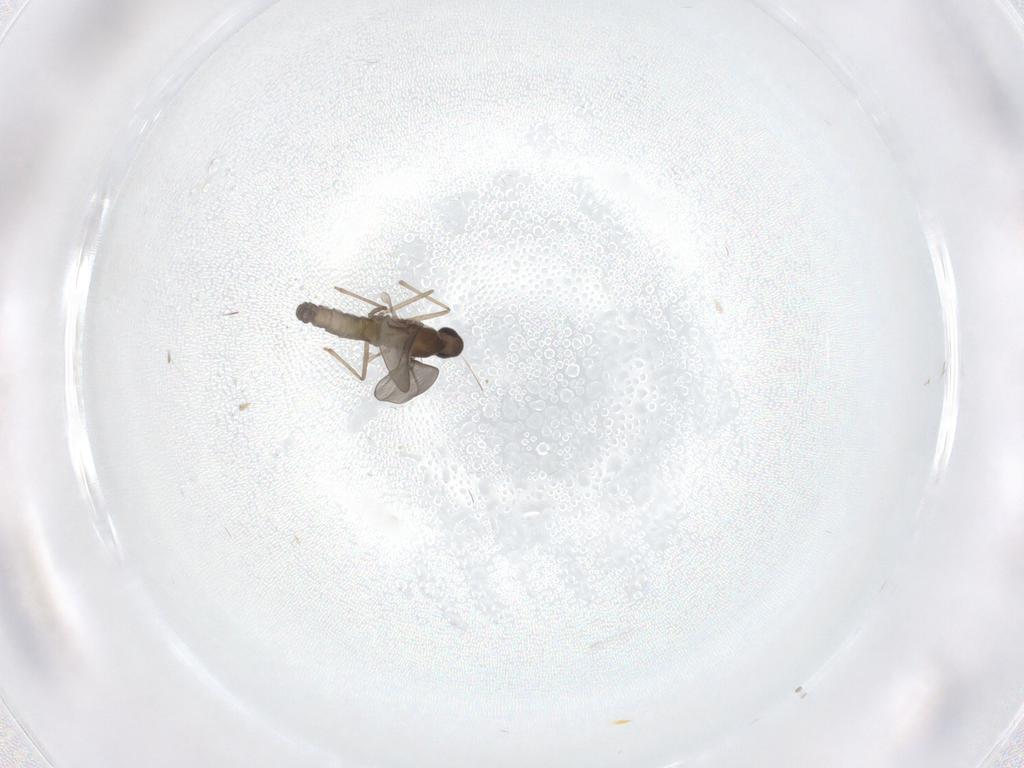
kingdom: Animalia
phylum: Arthropoda
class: Insecta
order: Diptera
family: Cecidomyiidae
